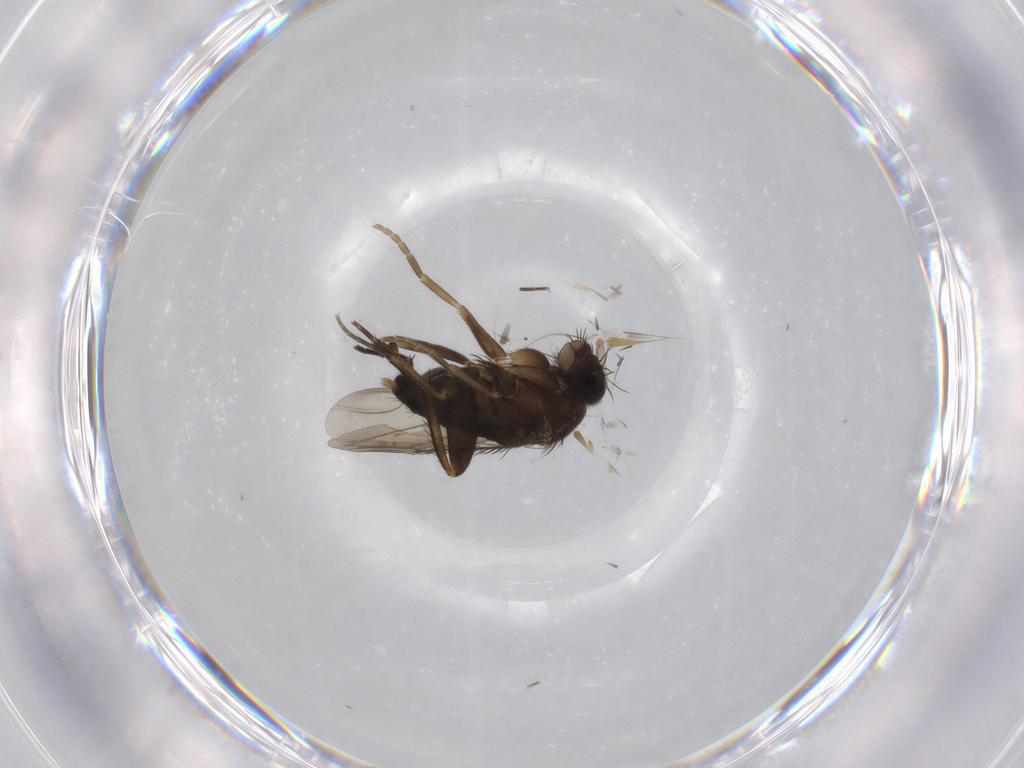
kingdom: Animalia
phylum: Arthropoda
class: Insecta
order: Diptera
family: Phoridae
